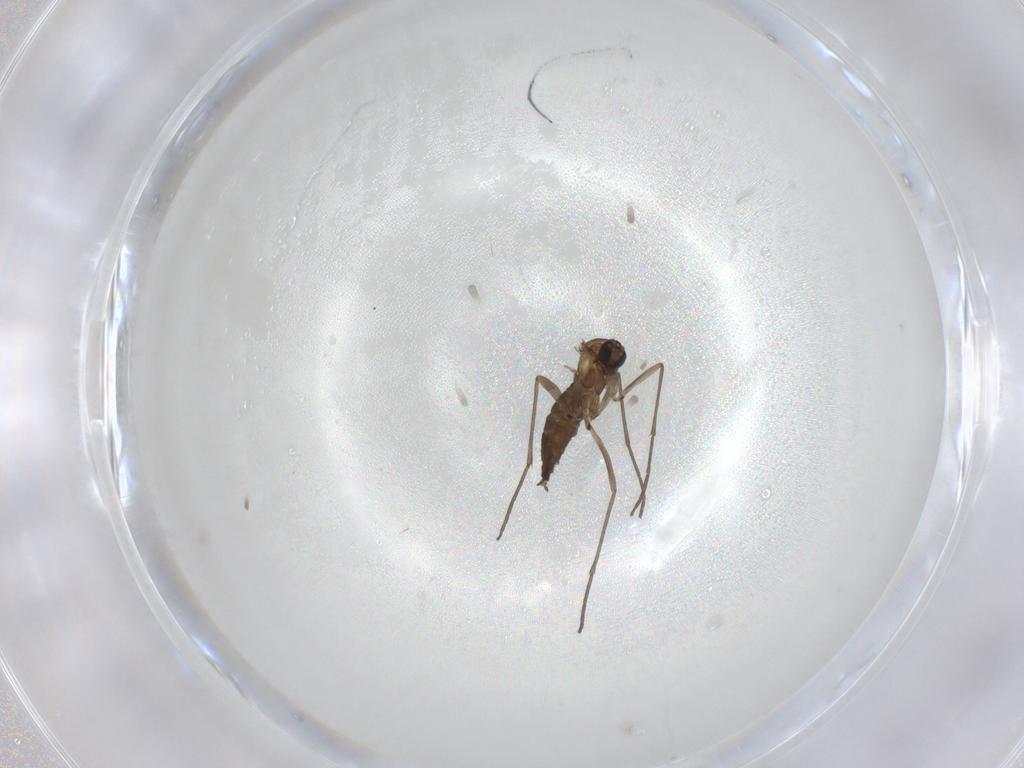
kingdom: Animalia
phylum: Arthropoda
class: Insecta
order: Diptera
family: Sciaridae
